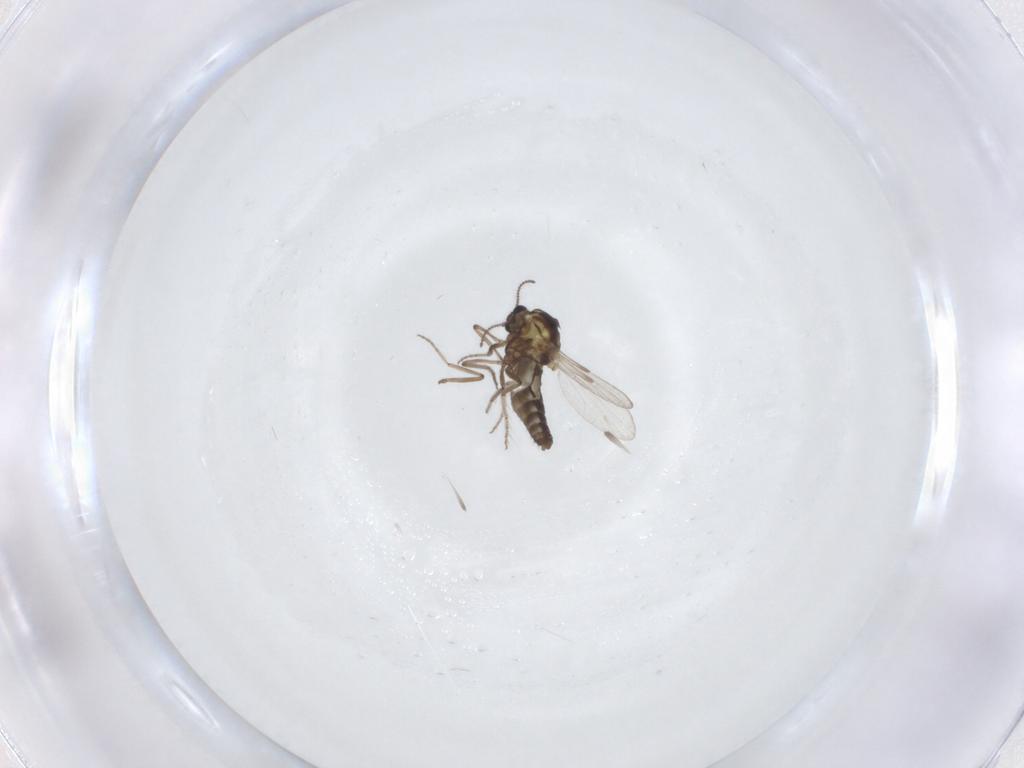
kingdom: Animalia
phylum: Arthropoda
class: Insecta
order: Diptera
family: Ceratopogonidae
